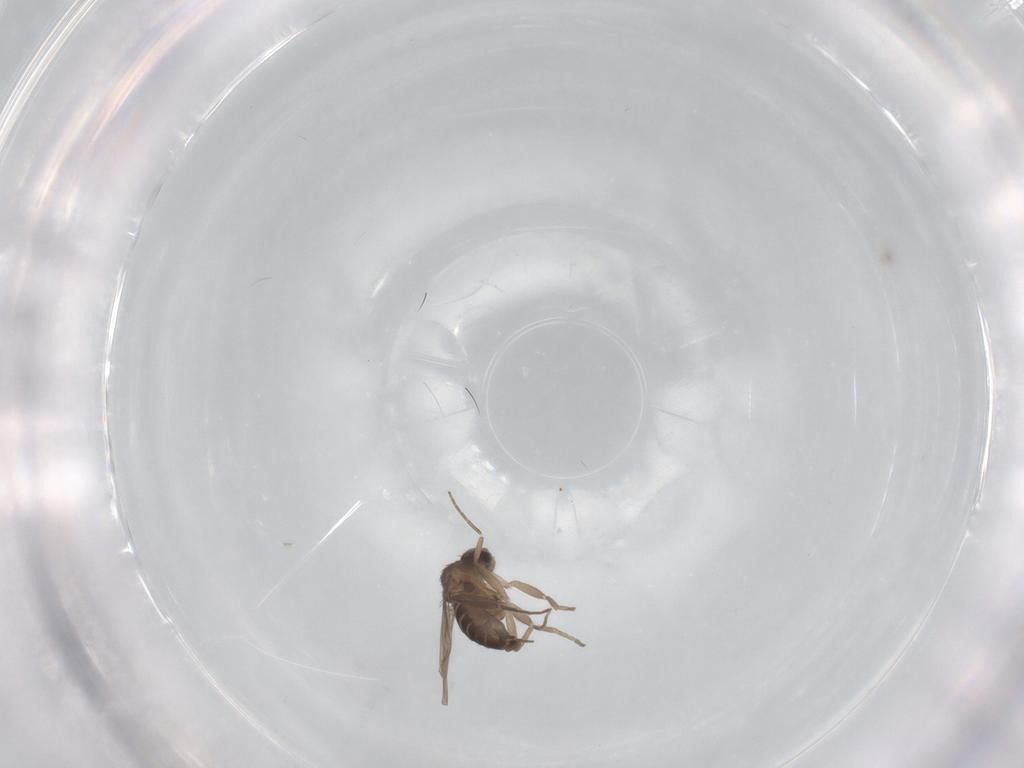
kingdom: Animalia
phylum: Arthropoda
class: Insecta
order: Diptera
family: Phoridae
